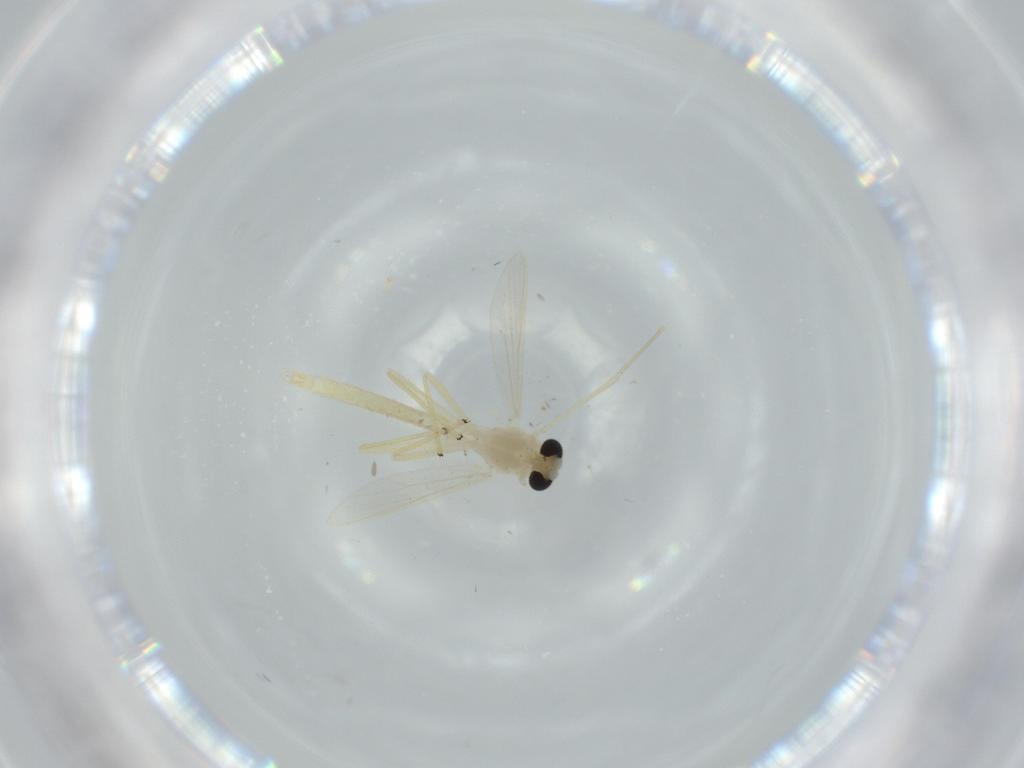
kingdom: Animalia
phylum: Arthropoda
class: Insecta
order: Diptera
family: Chironomidae
